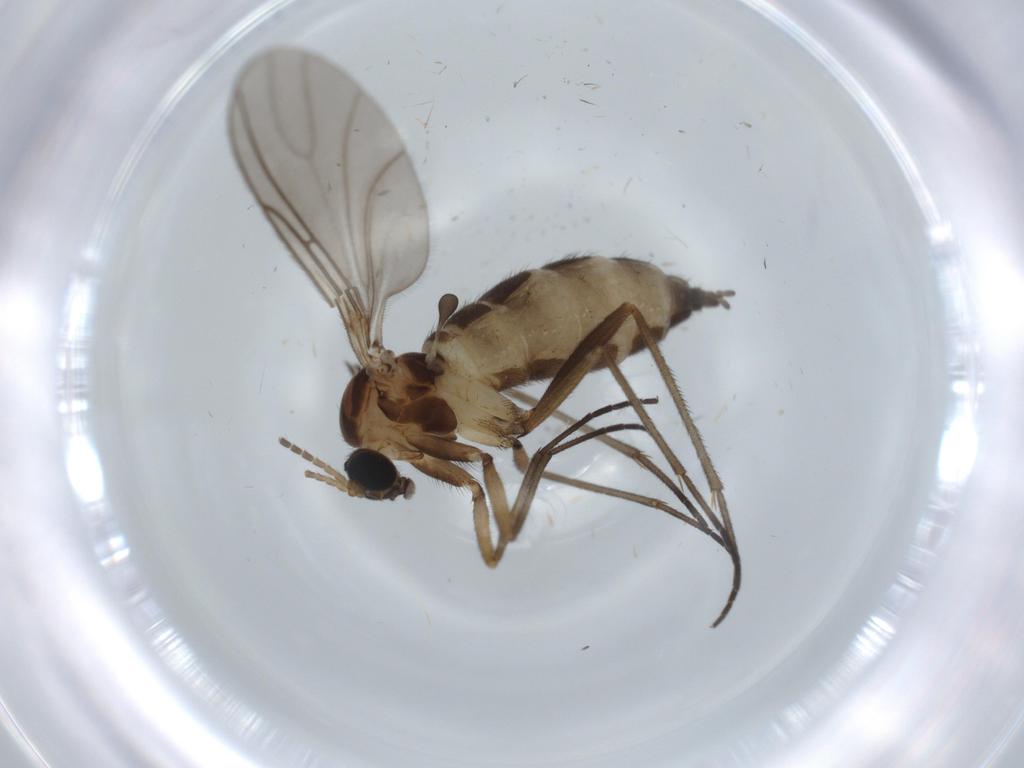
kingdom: Animalia
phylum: Arthropoda
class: Insecta
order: Diptera
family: Sciaridae
